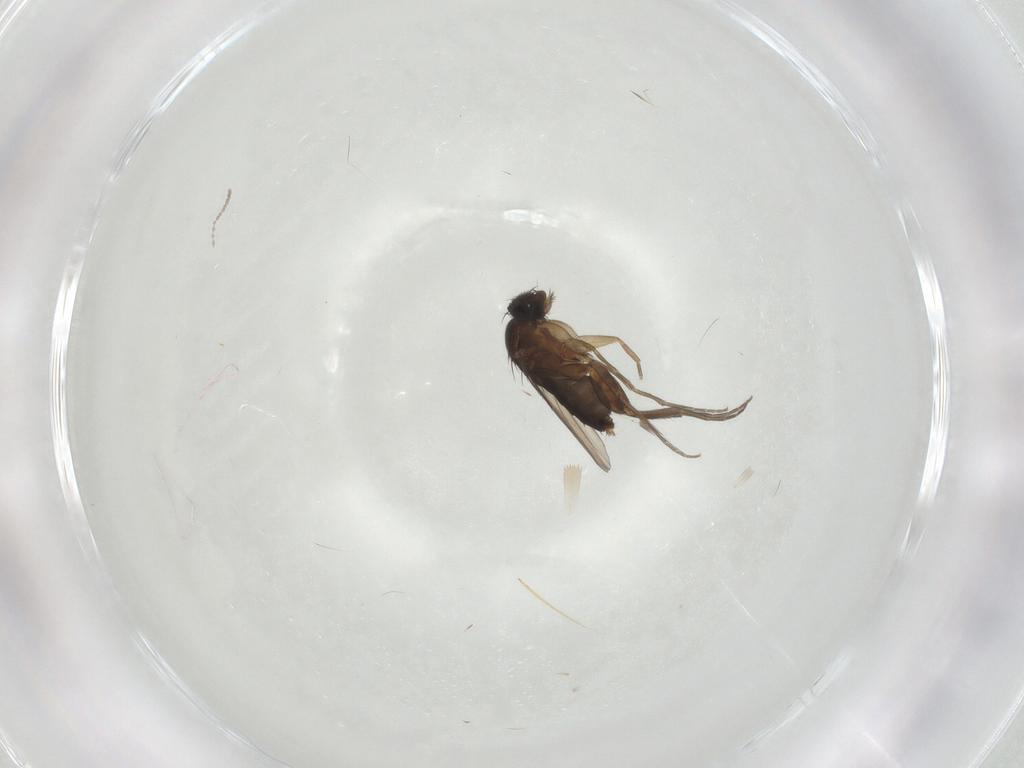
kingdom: Animalia
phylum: Arthropoda
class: Insecta
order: Diptera
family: Phoridae
